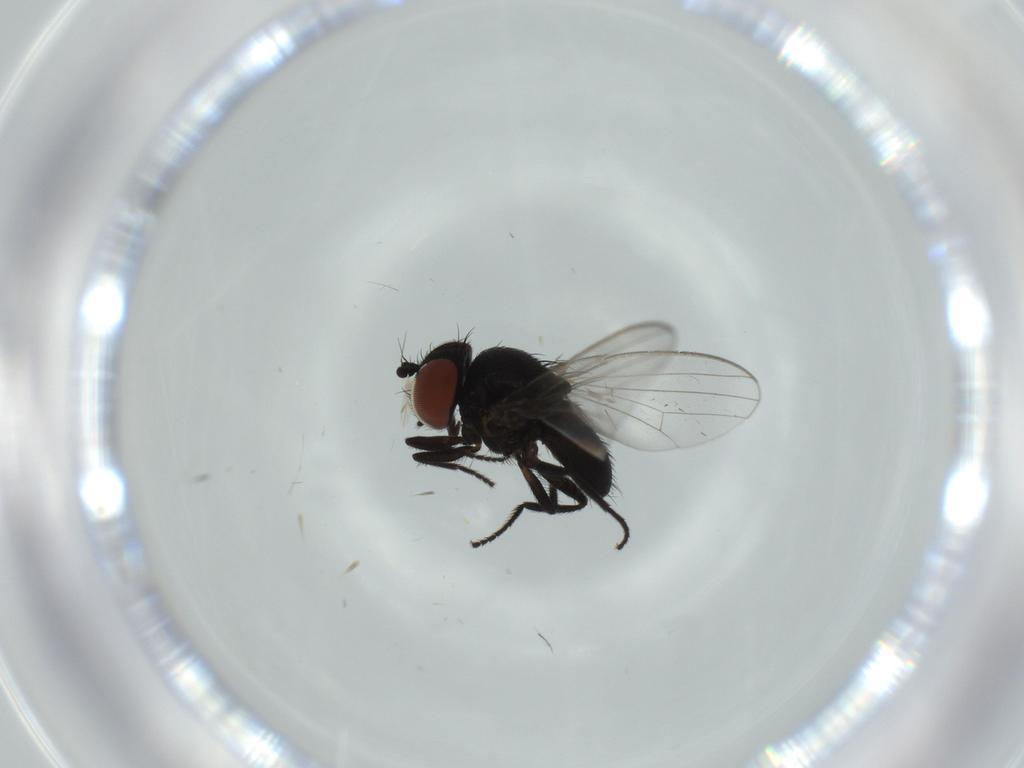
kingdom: Animalia
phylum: Arthropoda
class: Insecta
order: Diptera
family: Milichiidae
